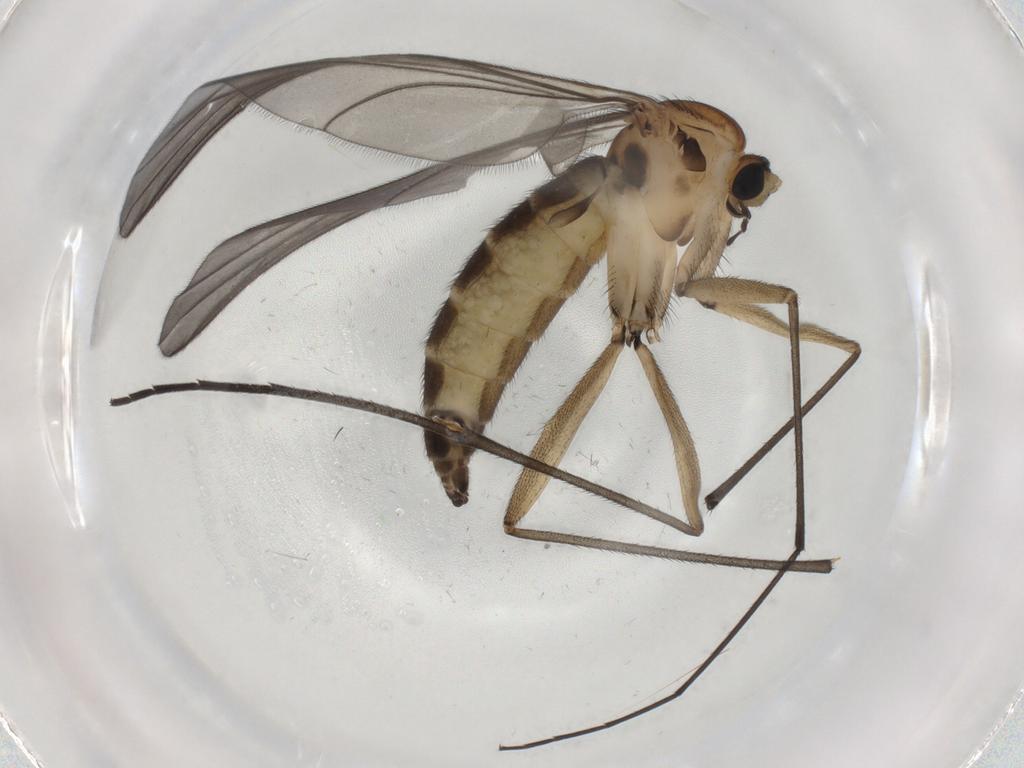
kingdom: Animalia
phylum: Arthropoda
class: Insecta
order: Diptera
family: Sciaridae
